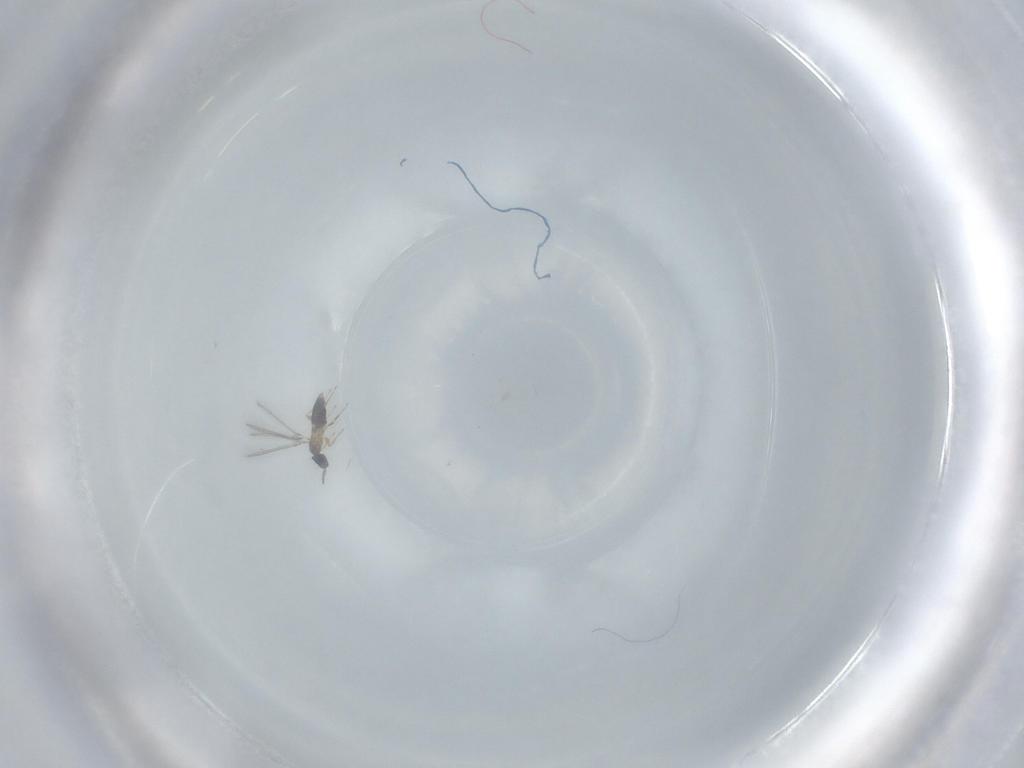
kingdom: Animalia
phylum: Arthropoda
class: Insecta
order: Hymenoptera
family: Mymaridae
